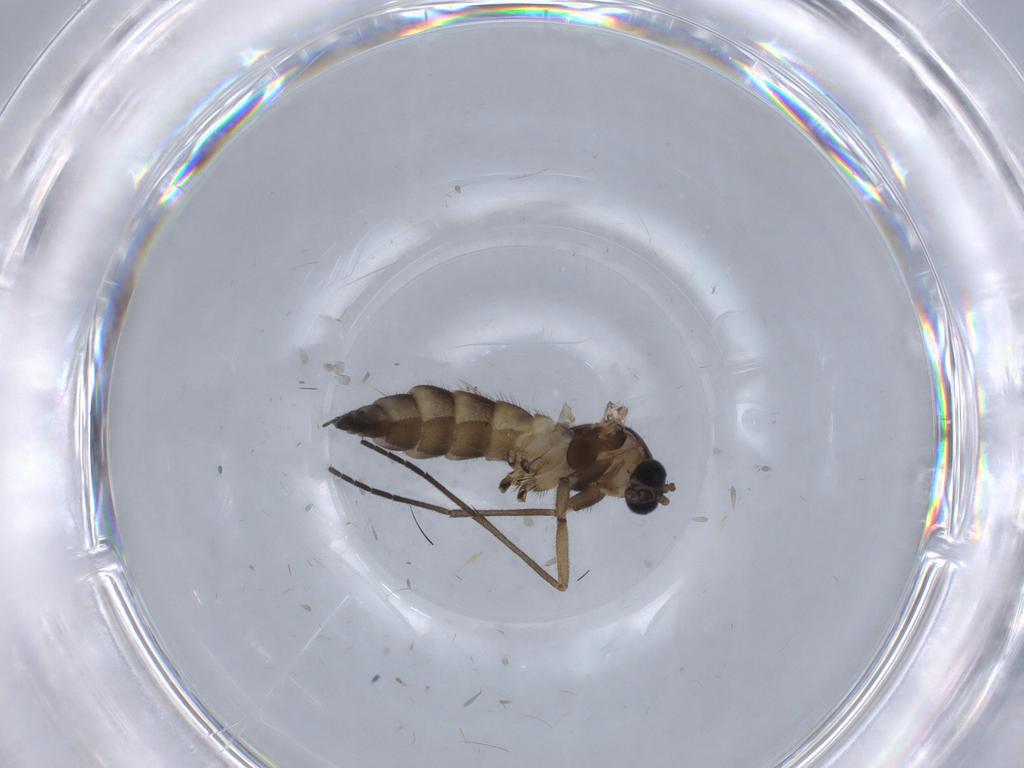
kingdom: Animalia
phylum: Arthropoda
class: Insecta
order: Diptera
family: Sciaridae
